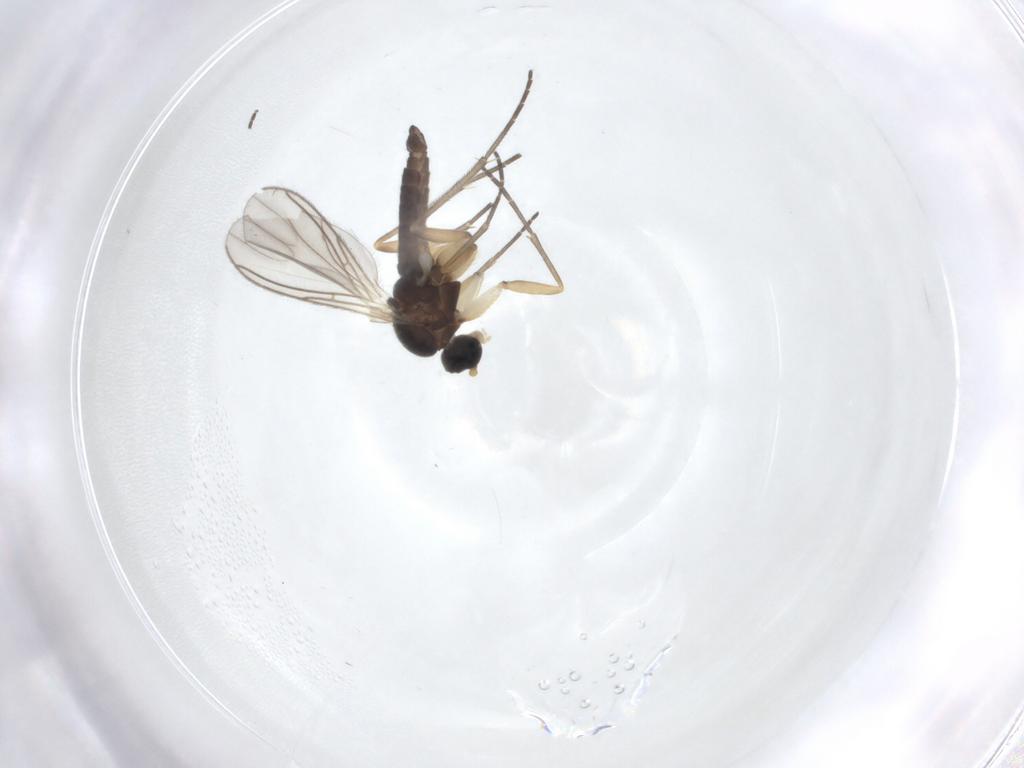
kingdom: Animalia
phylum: Arthropoda
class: Insecta
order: Diptera
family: Sciaridae
